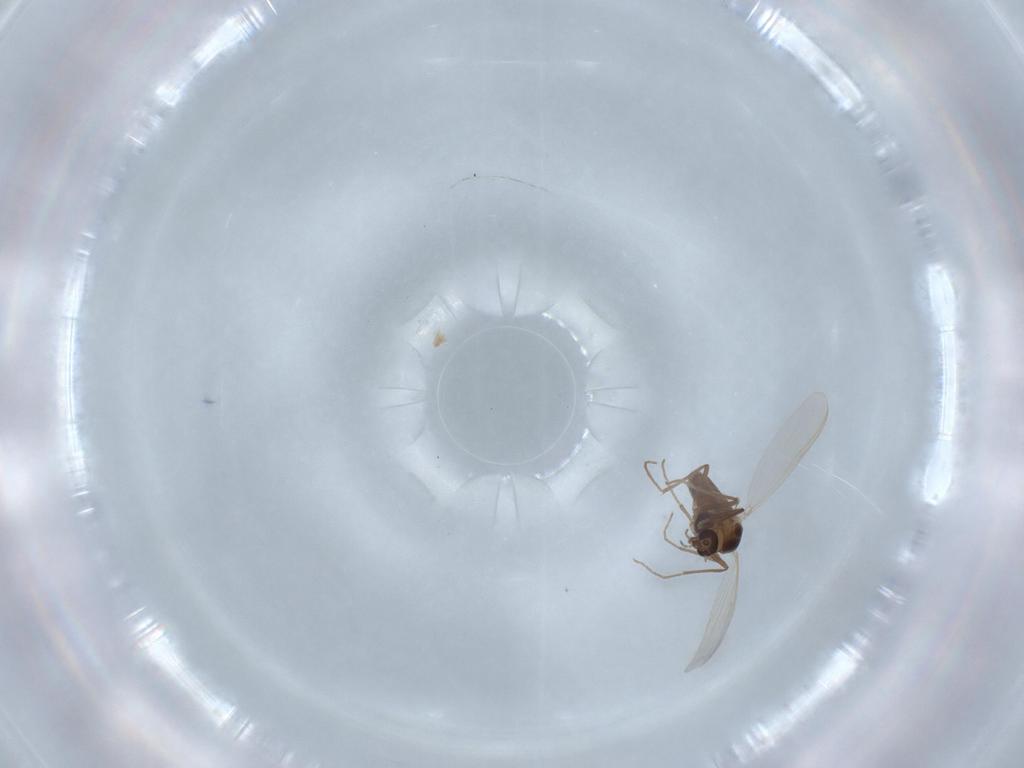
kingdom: Animalia
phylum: Arthropoda
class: Insecta
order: Diptera
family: Chironomidae
